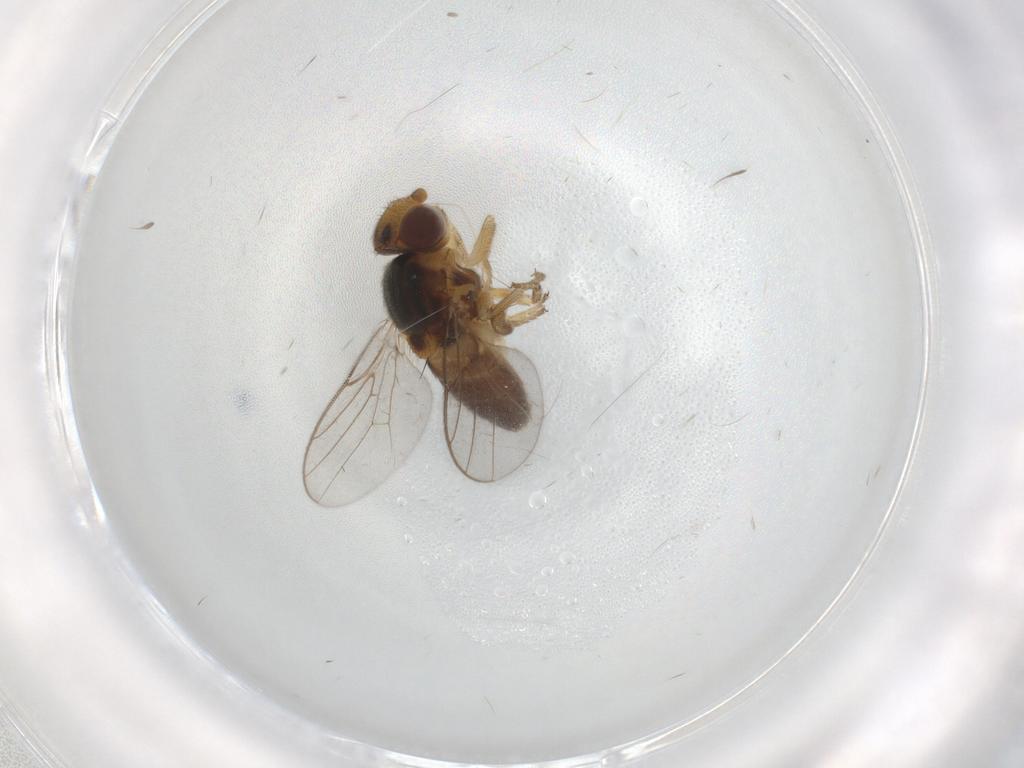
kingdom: Animalia
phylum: Arthropoda
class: Insecta
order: Diptera
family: Chloropidae
